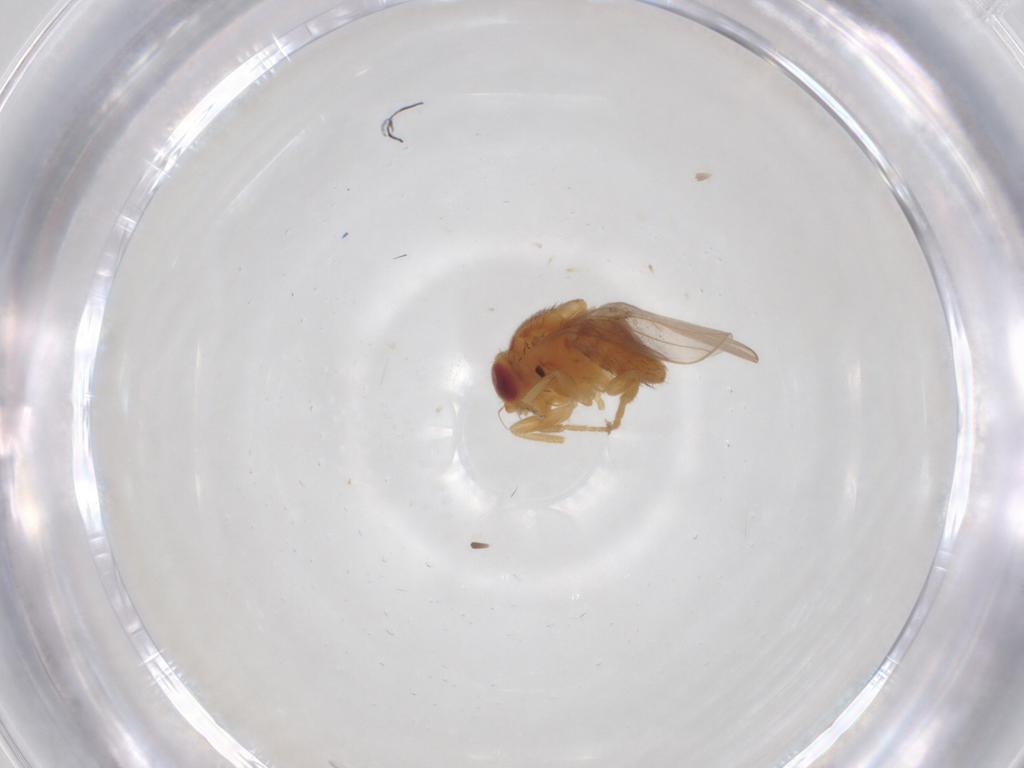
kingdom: Animalia
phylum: Arthropoda
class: Insecta
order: Diptera
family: Chloropidae
